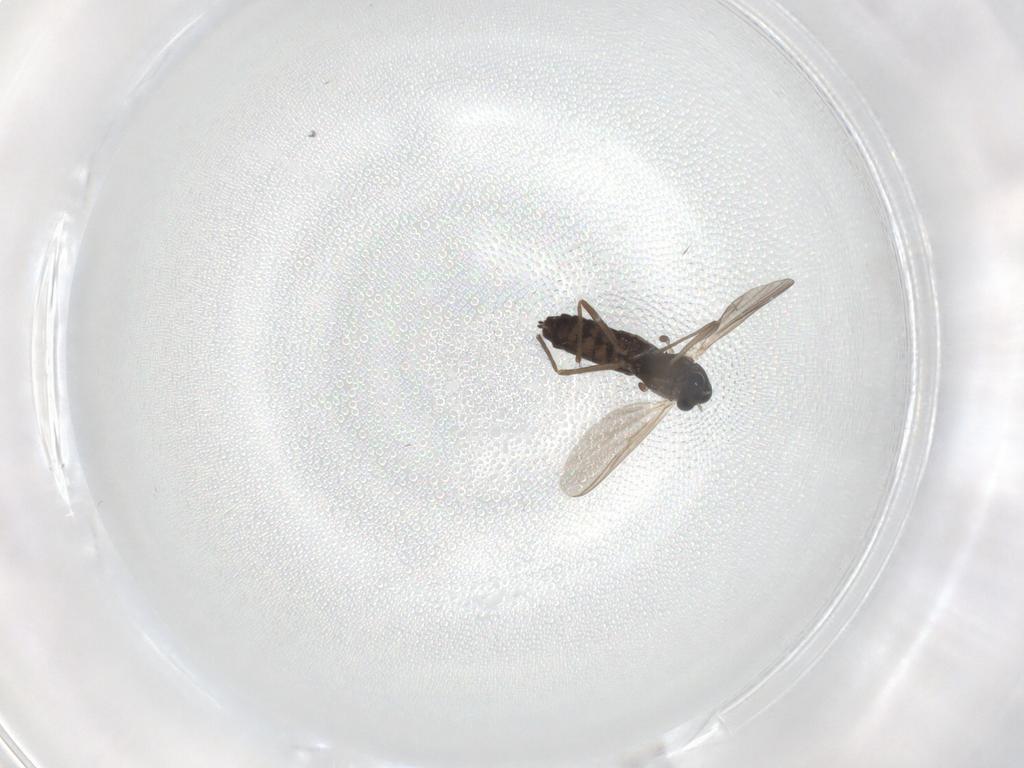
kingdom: Animalia
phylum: Arthropoda
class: Insecta
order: Diptera
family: Chironomidae
